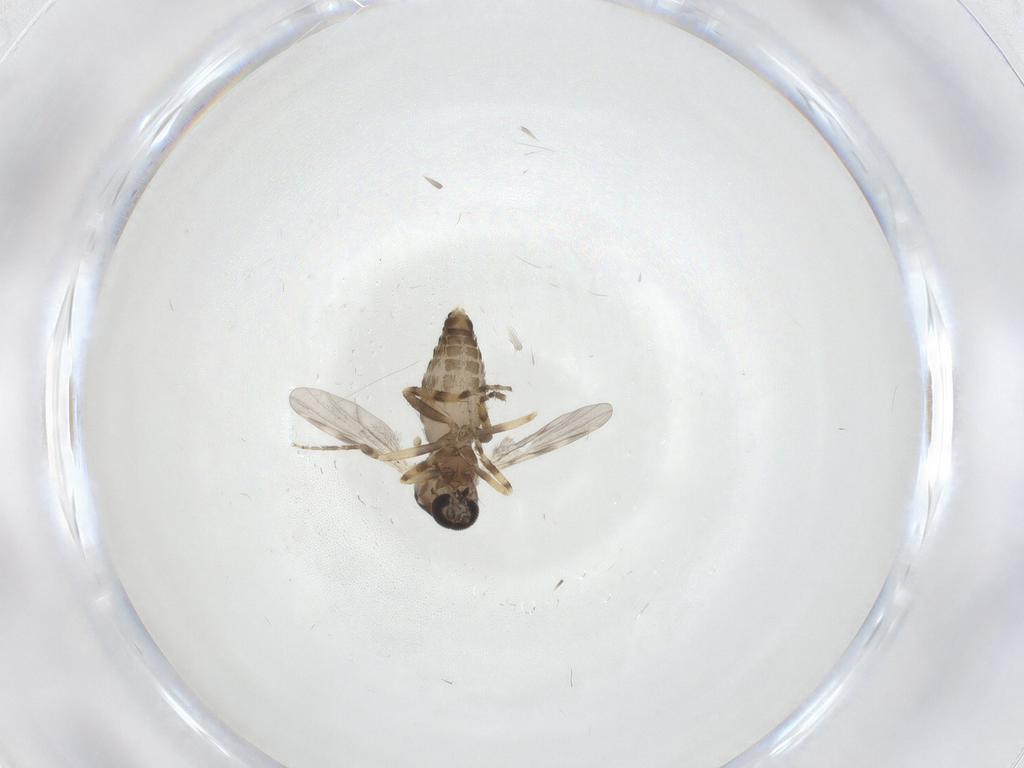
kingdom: Animalia
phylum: Arthropoda
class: Insecta
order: Diptera
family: Ceratopogonidae
